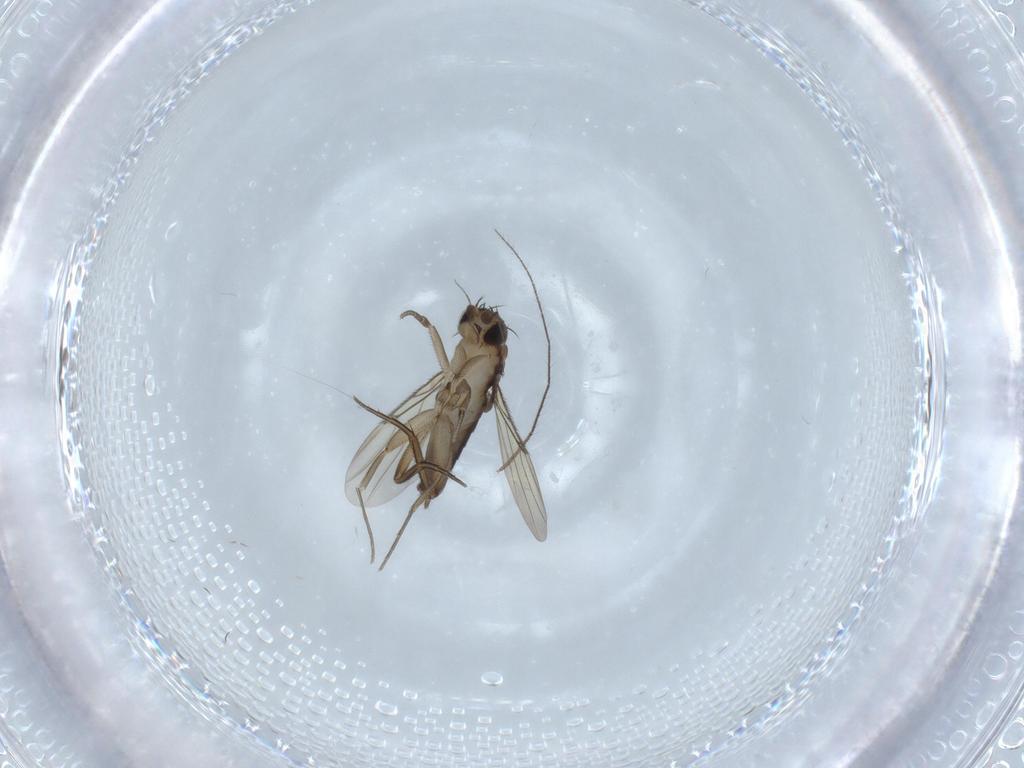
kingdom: Animalia
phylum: Arthropoda
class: Insecta
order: Diptera
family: Phoridae
